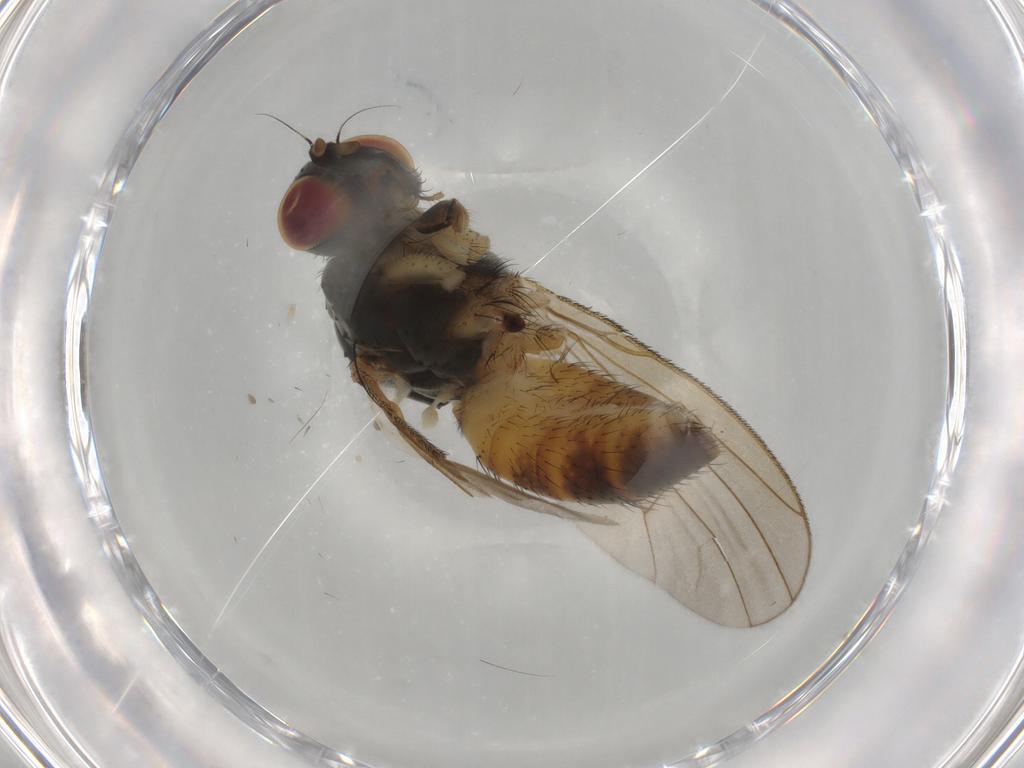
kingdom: Animalia
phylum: Arthropoda
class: Insecta
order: Diptera
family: Muscidae
